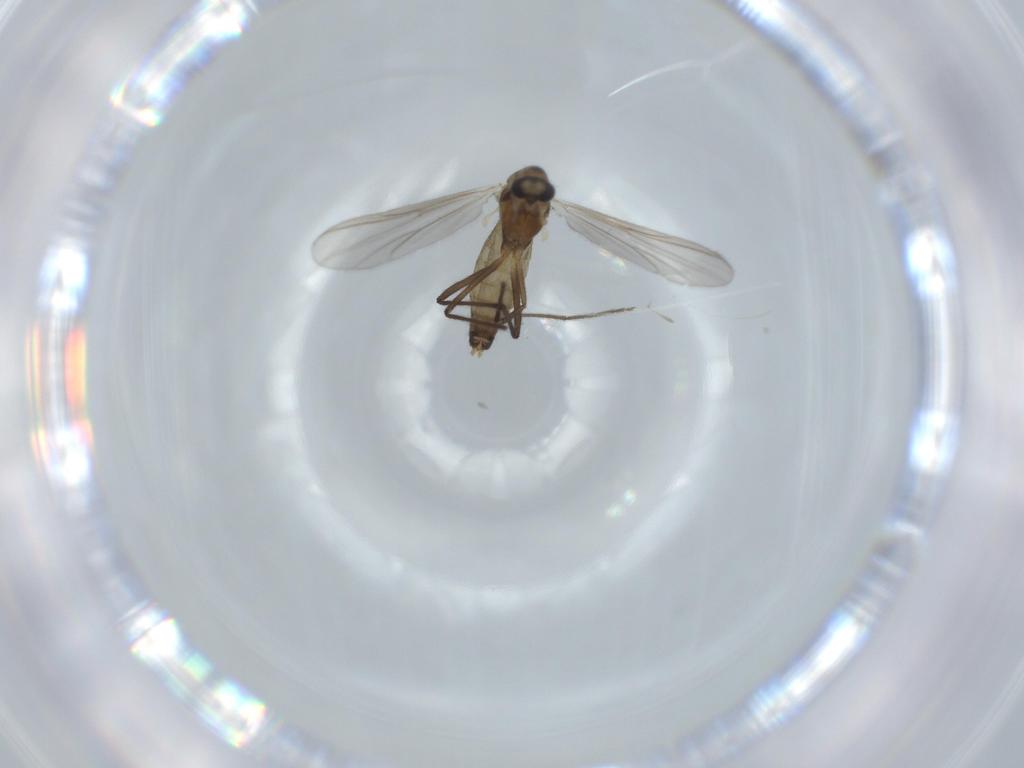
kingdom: Animalia
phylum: Arthropoda
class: Insecta
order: Diptera
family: Chironomidae
